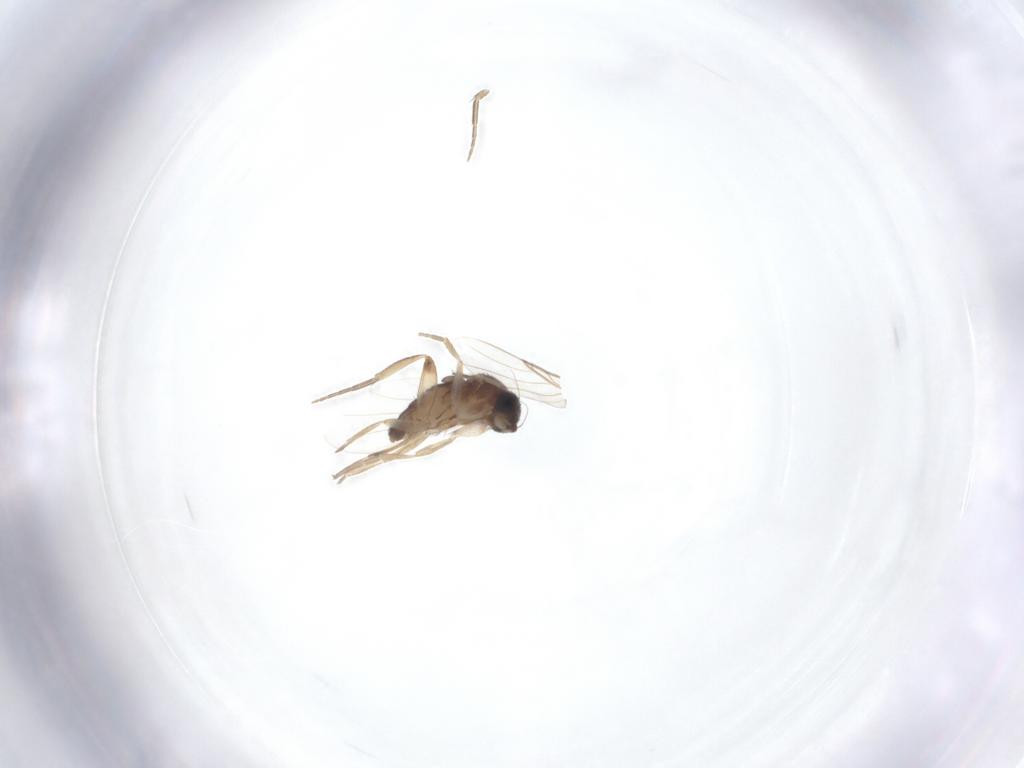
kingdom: Animalia
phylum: Arthropoda
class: Insecta
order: Diptera
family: Phoridae
